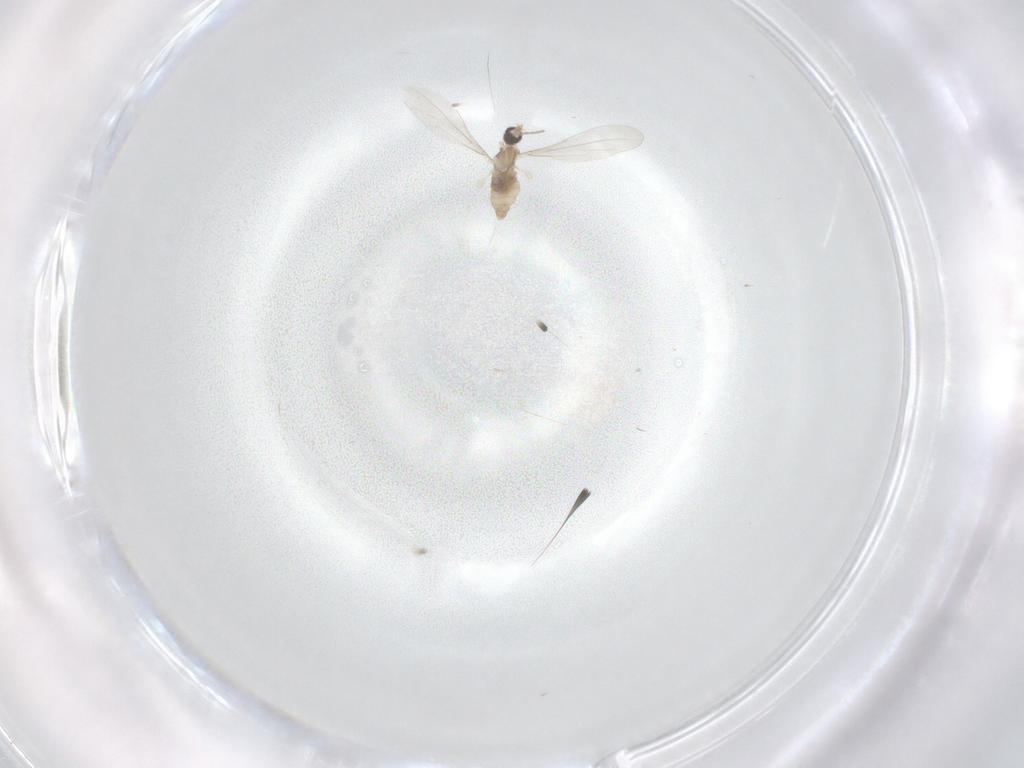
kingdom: Animalia
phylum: Arthropoda
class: Insecta
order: Diptera
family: Cecidomyiidae
